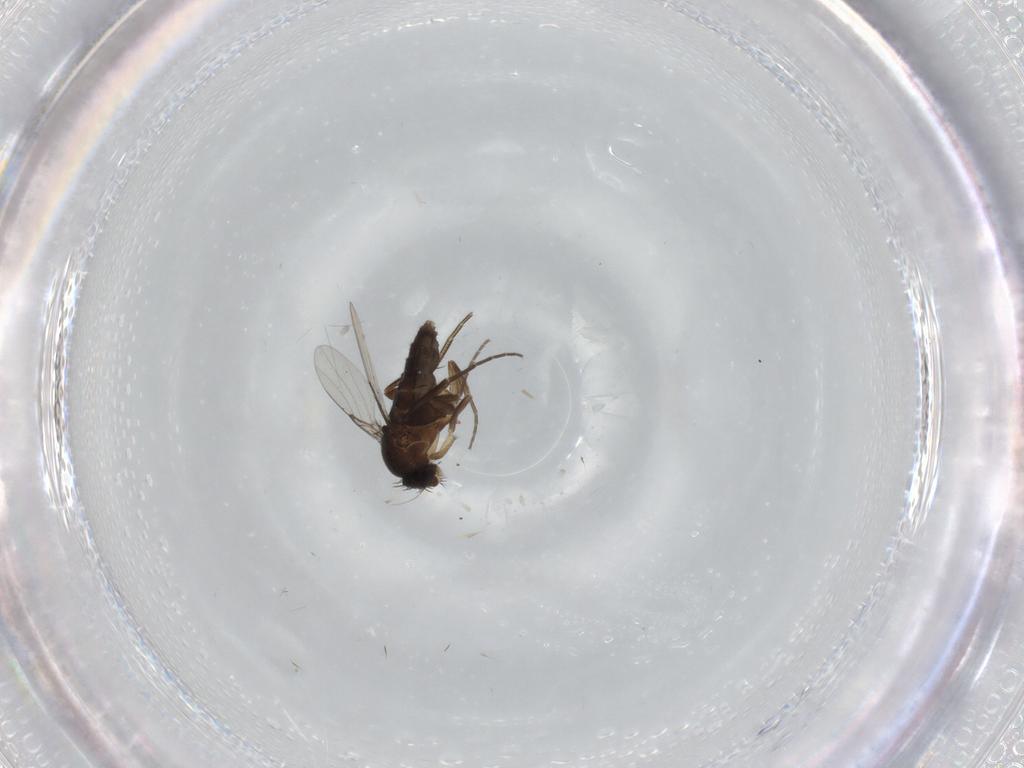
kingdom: Animalia
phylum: Arthropoda
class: Insecta
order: Diptera
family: Phoridae
